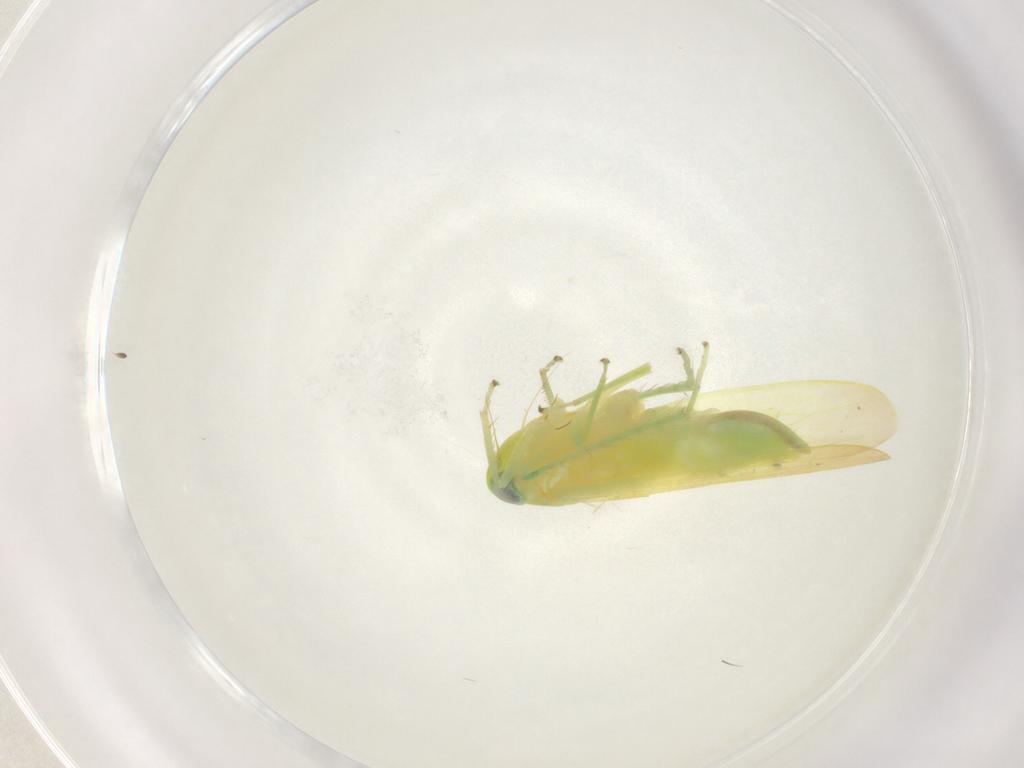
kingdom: Animalia
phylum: Arthropoda
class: Insecta
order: Hemiptera
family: Cicadellidae
